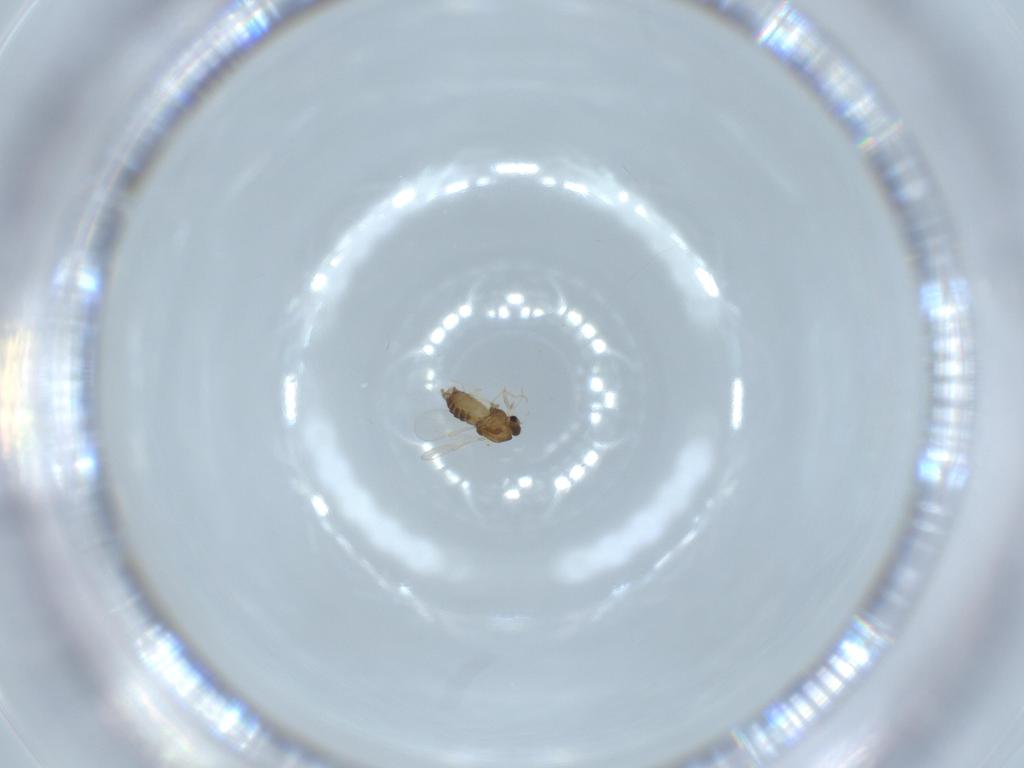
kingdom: Animalia
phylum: Arthropoda
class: Insecta
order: Diptera
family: Chironomidae
